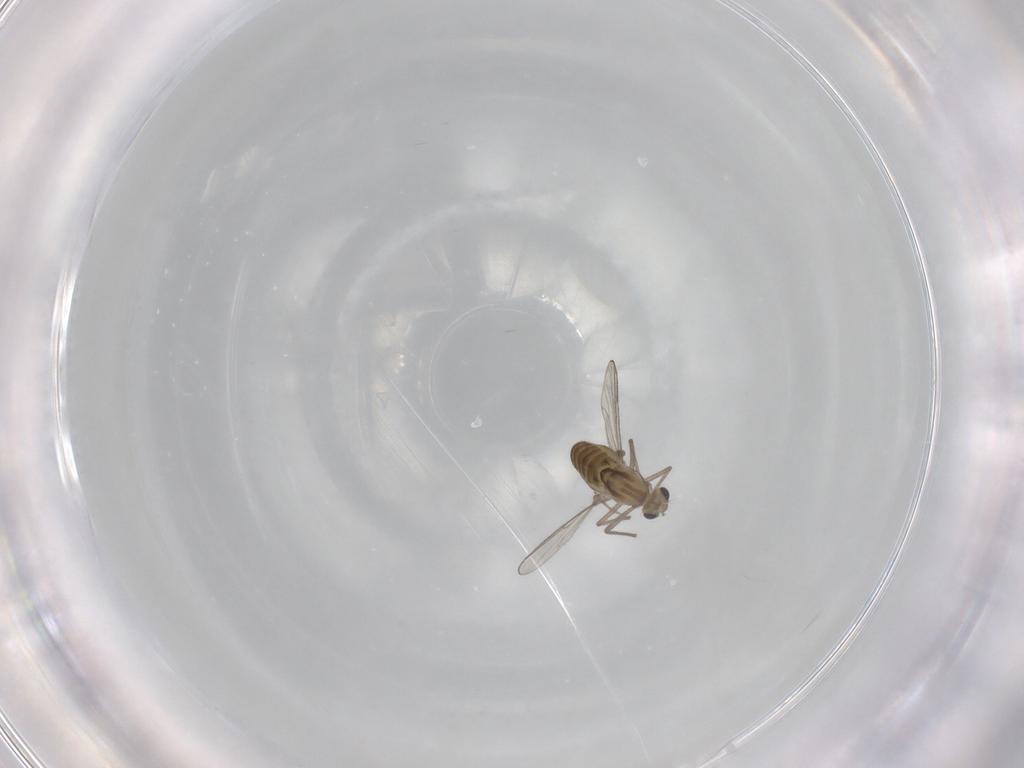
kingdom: Animalia
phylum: Arthropoda
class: Insecta
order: Diptera
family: Chironomidae
